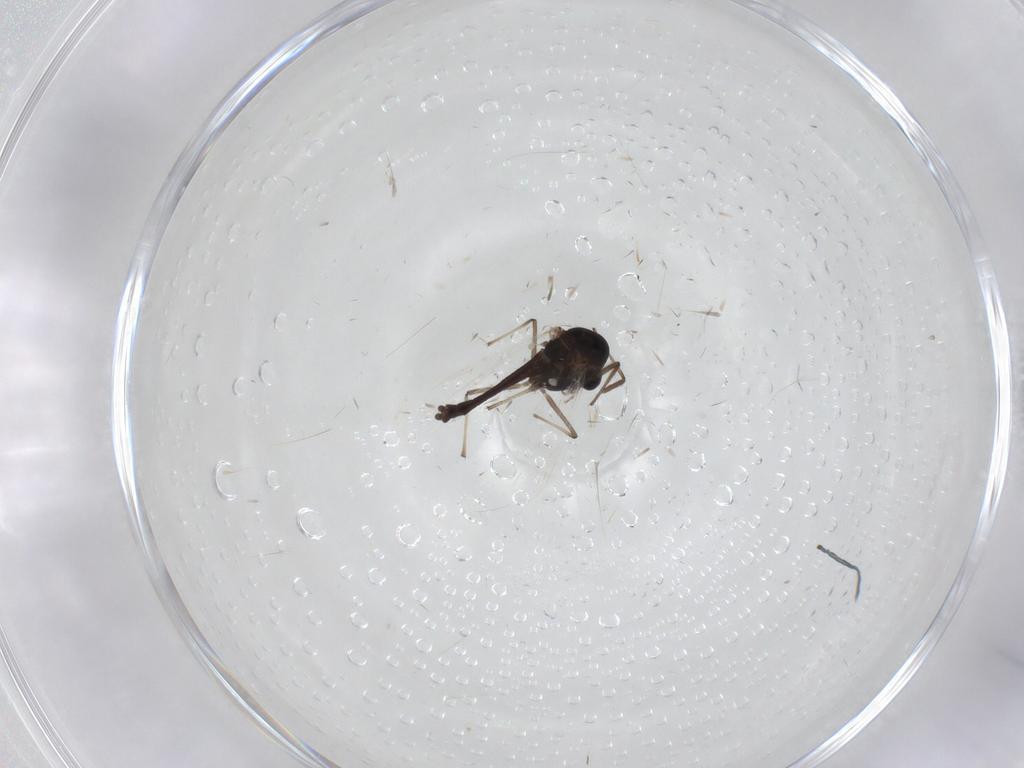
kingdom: Animalia
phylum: Arthropoda
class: Insecta
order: Diptera
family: Chironomidae
